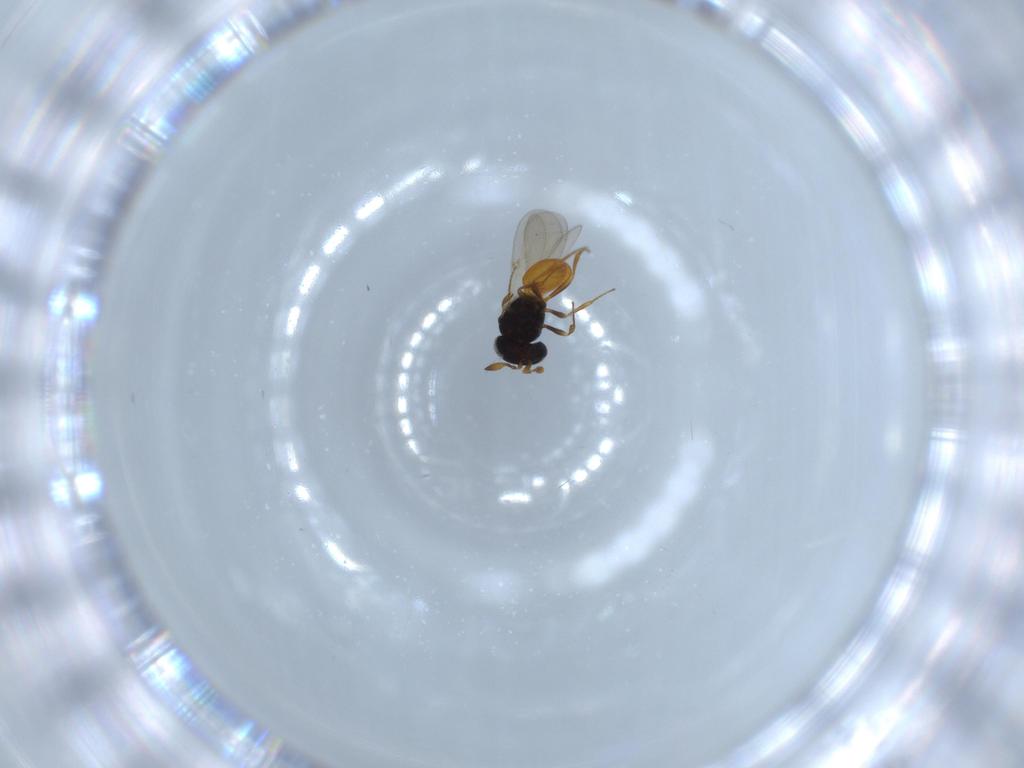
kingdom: Animalia
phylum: Arthropoda
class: Insecta
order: Hymenoptera
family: Scelionidae
